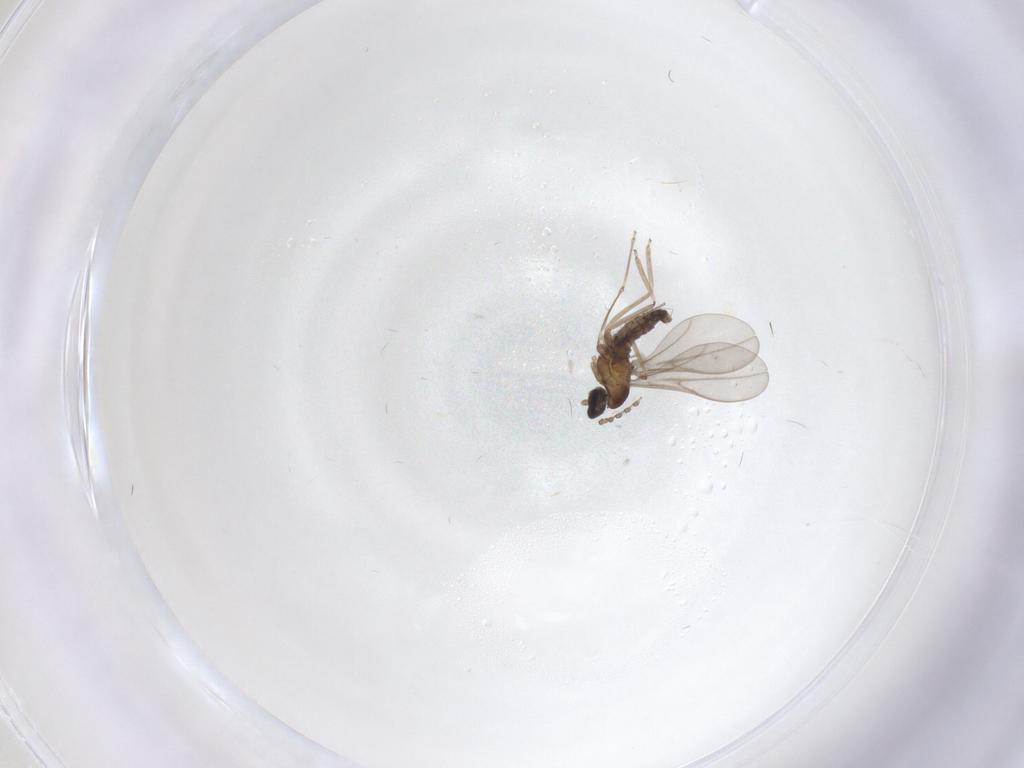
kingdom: Animalia
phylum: Arthropoda
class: Insecta
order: Diptera
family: Cecidomyiidae
